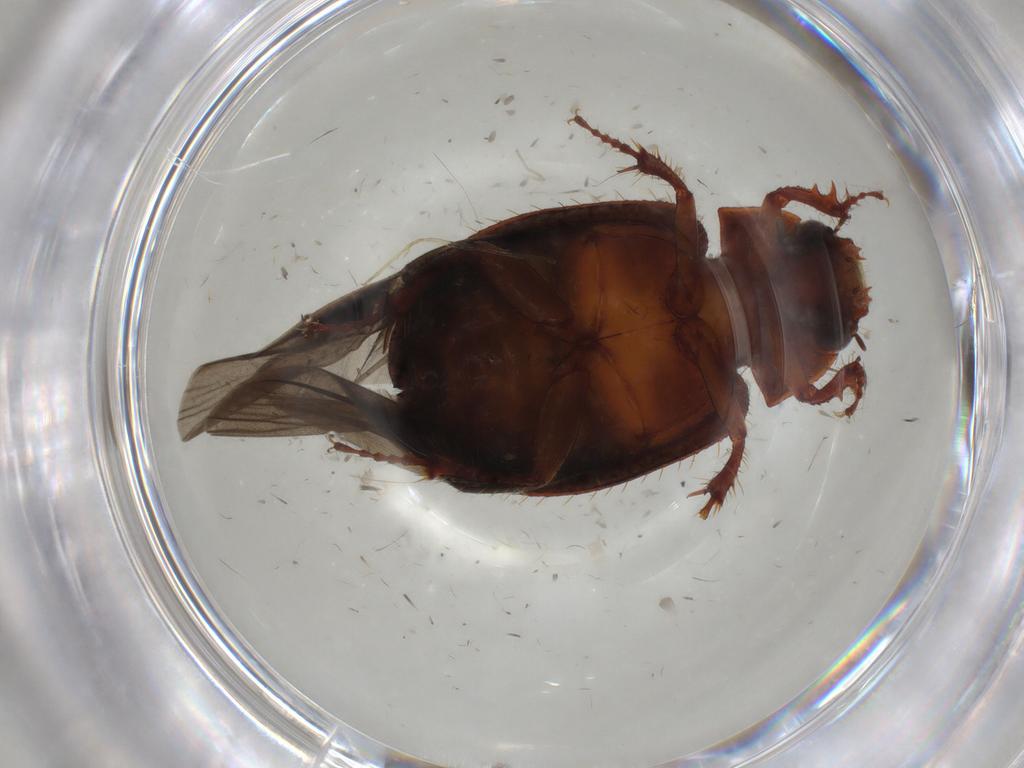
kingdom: Animalia
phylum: Arthropoda
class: Insecta
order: Coleoptera
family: Hybosoridae
